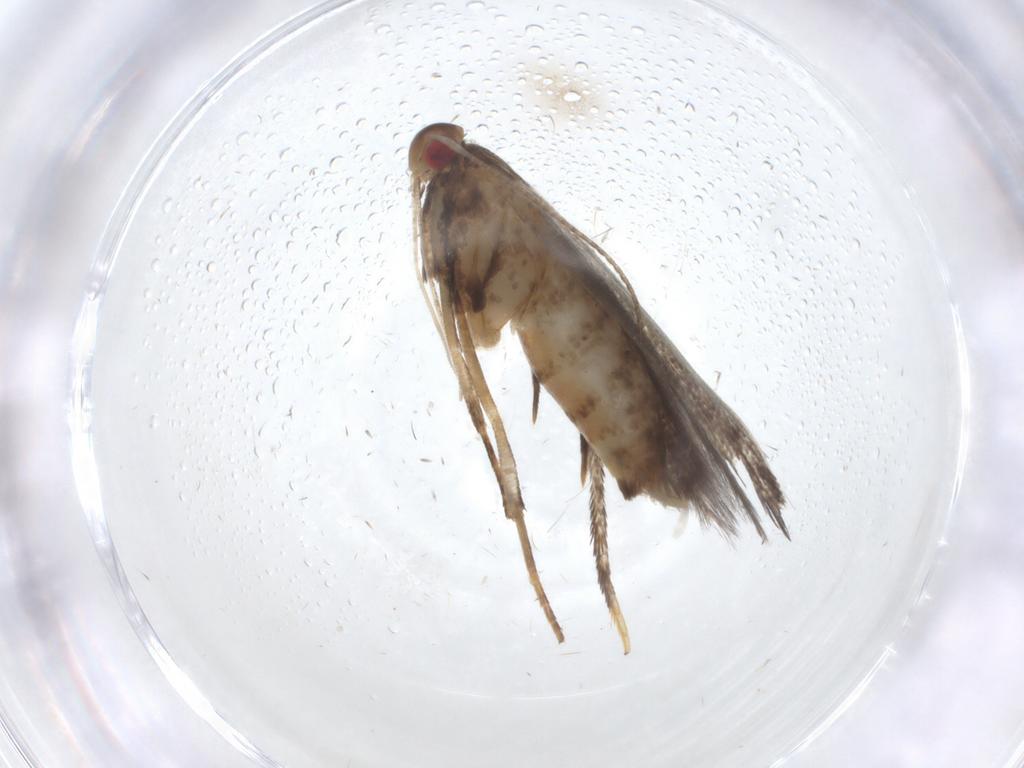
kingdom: Animalia
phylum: Arthropoda
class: Insecta
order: Lepidoptera
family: Gelechiidae
